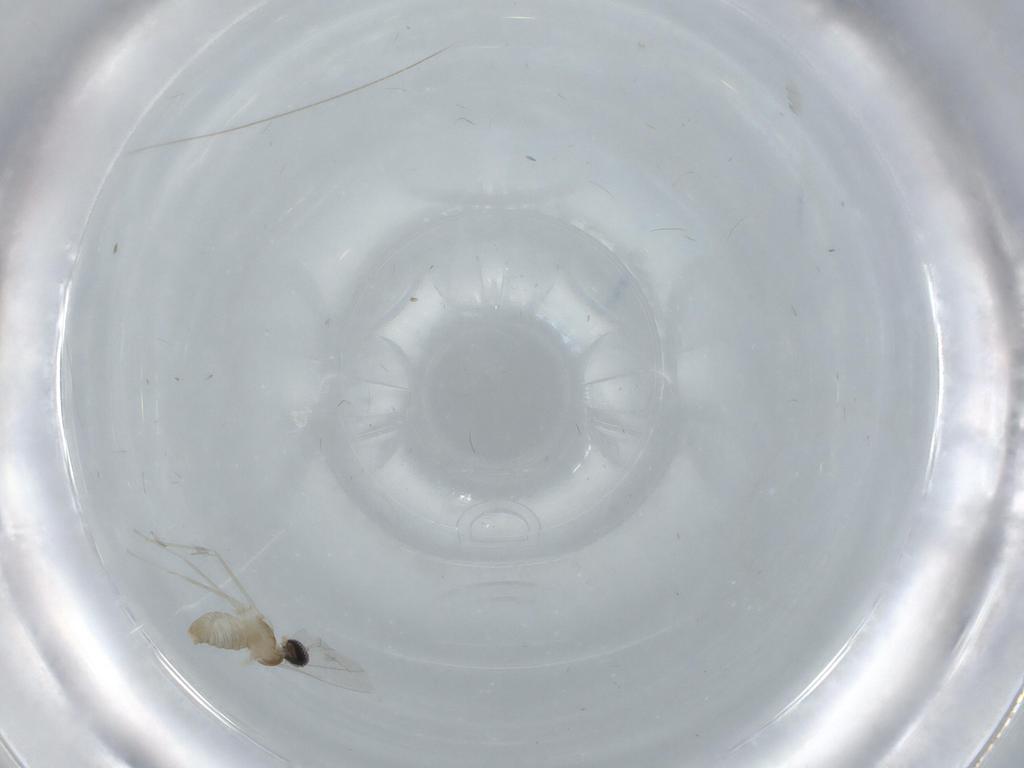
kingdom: Animalia
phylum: Arthropoda
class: Insecta
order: Diptera
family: Cecidomyiidae
